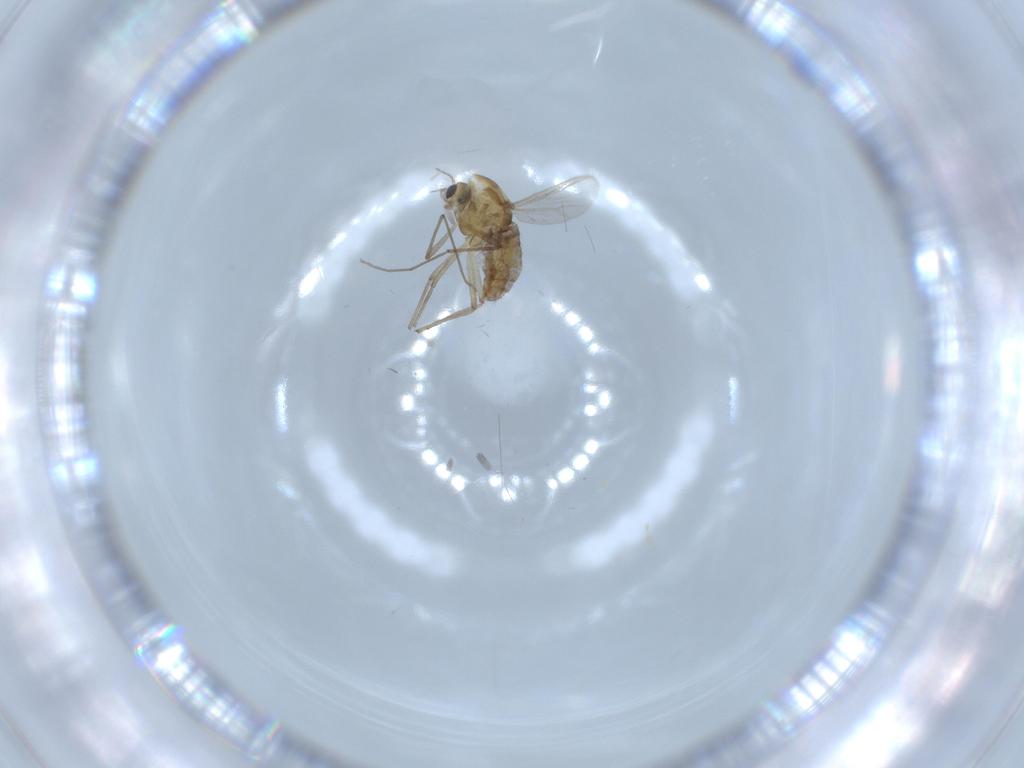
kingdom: Animalia
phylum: Arthropoda
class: Insecta
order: Diptera
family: Chironomidae
